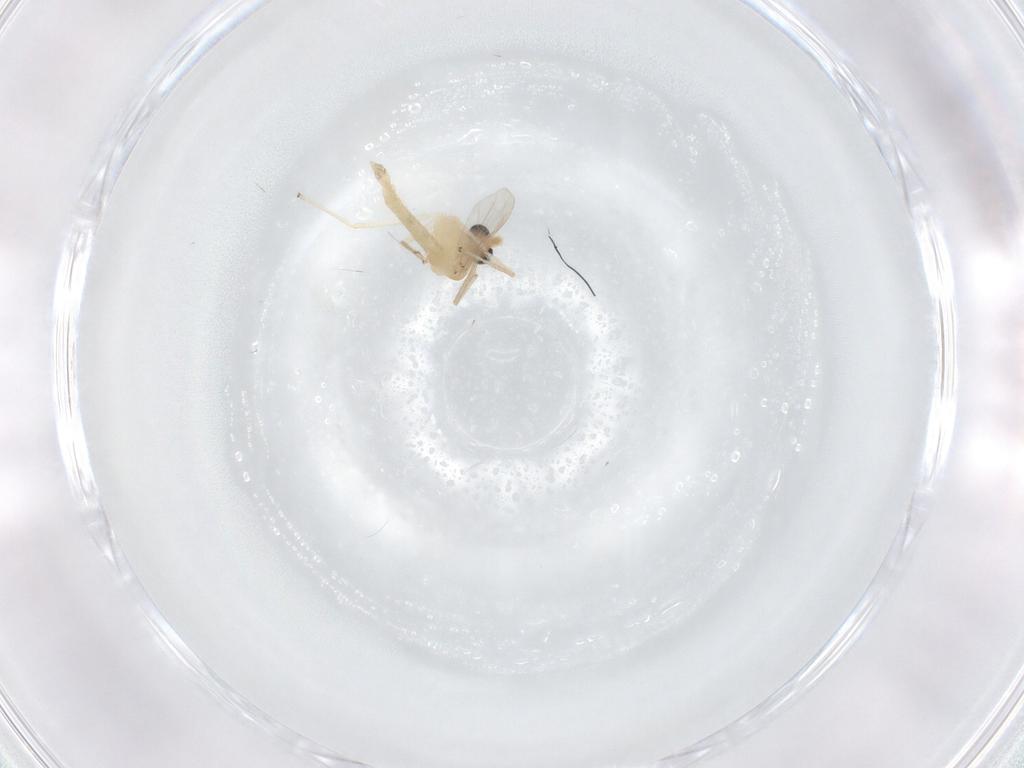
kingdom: Animalia
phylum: Arthropoda
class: Insecta
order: Diptera
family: Chironomidae
